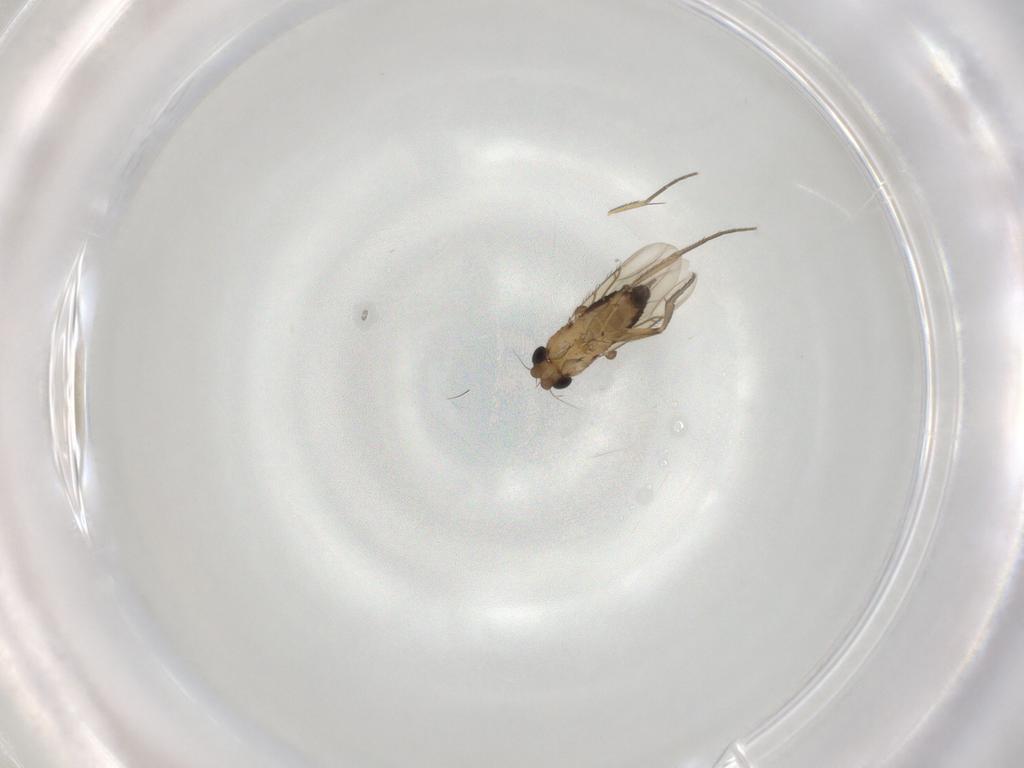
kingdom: Animalia
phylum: Arthropoda
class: Insecta
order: Diptera
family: Phoridae
